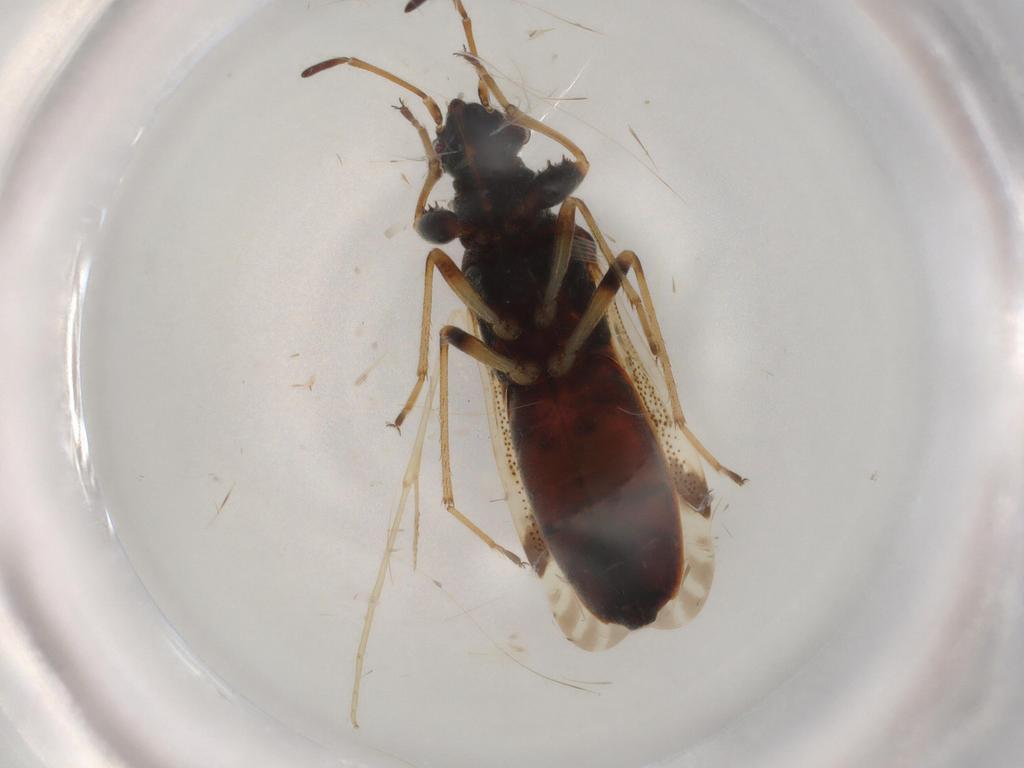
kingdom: Animalia
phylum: Arthropoda
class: Insecta
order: Hemiptera
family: Rhyparochromidae
